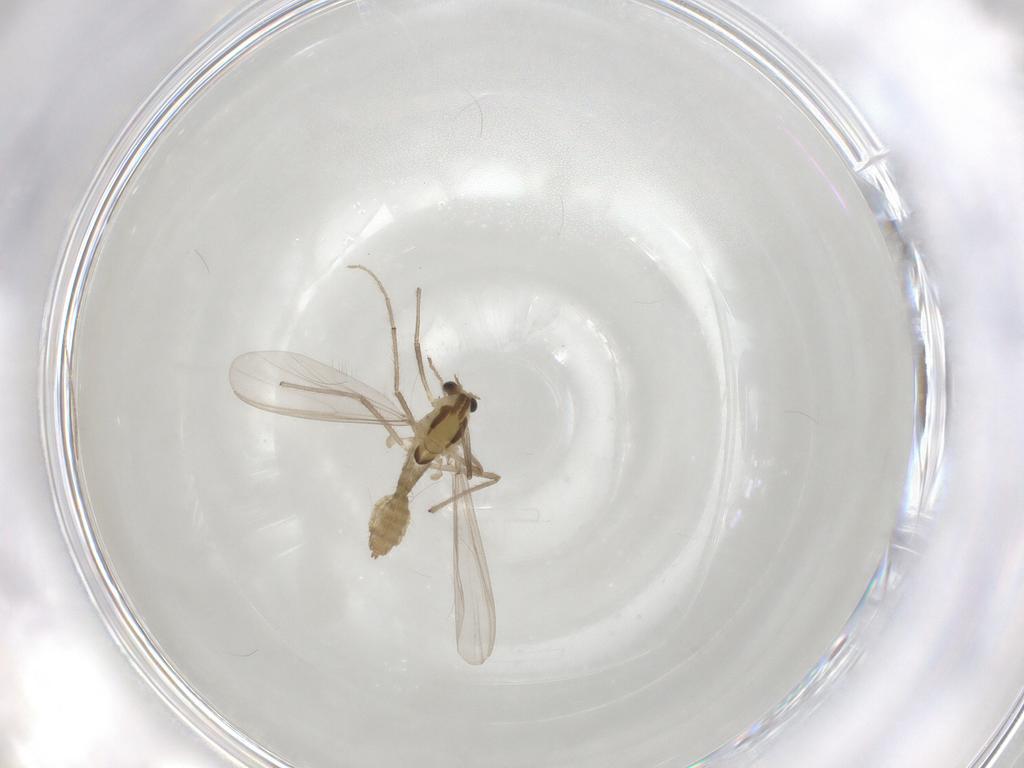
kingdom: Animalia
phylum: Arthropoda
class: Insecta
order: Diptera
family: Chironomidae
